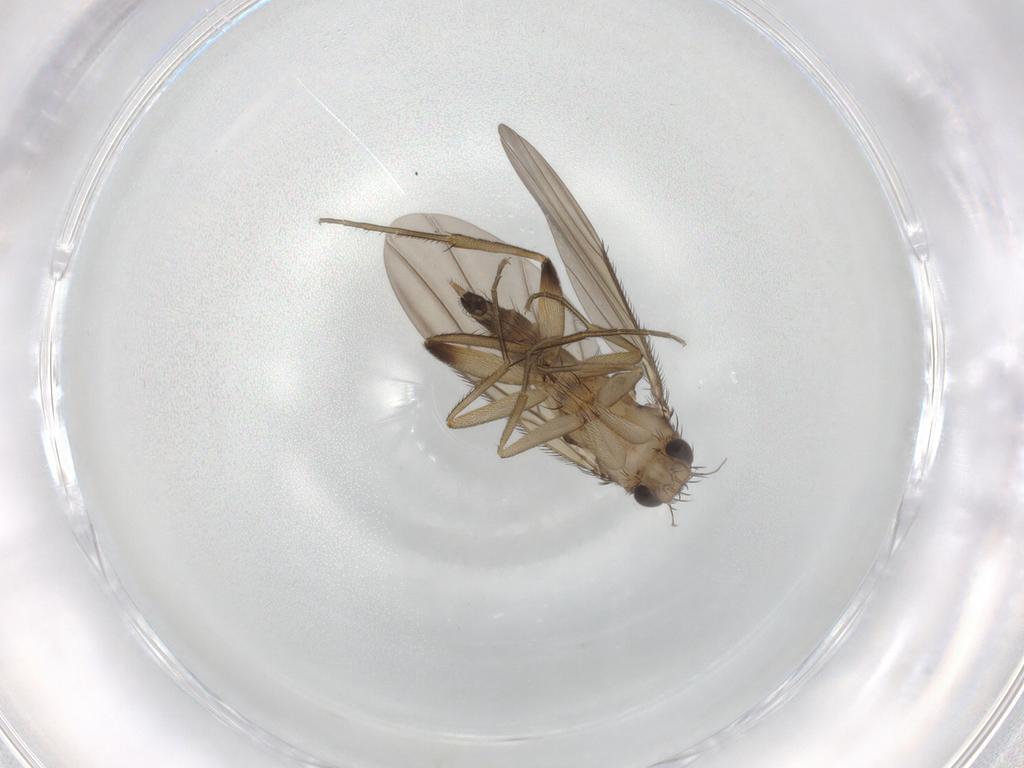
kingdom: Animalia
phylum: Arthropoda
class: Insecta
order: Diptera
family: Phoridae
